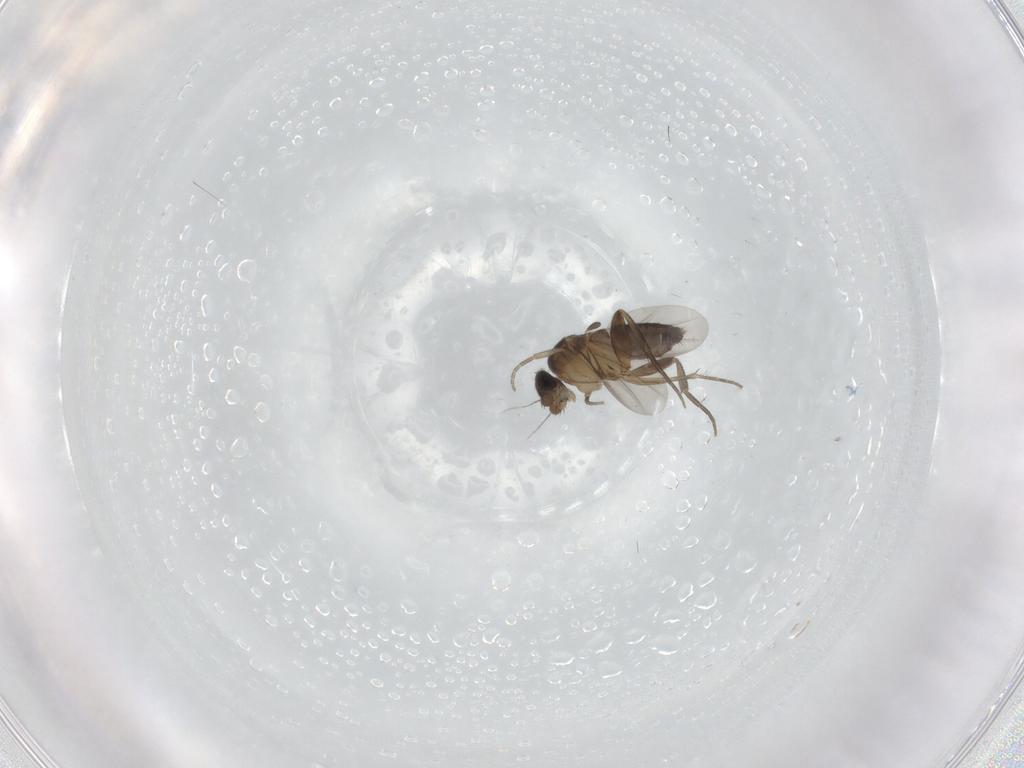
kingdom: Animalia
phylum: Arthropoda
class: Insecta
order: Diptera
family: Phoridae
